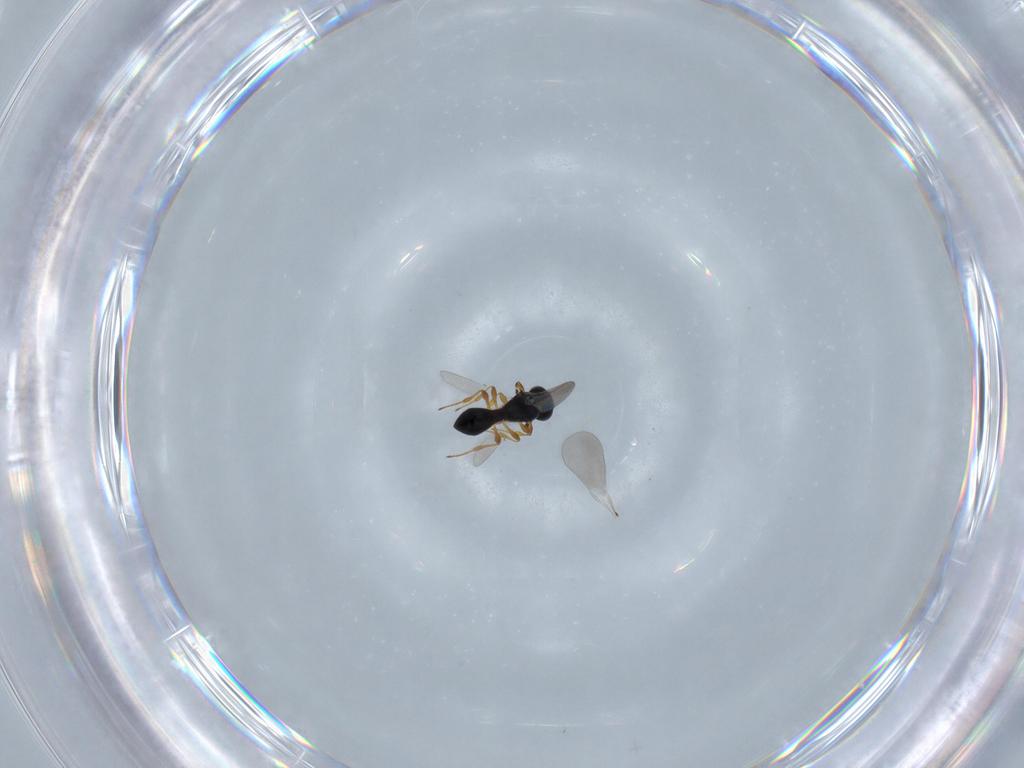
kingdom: Animalia
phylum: Arthropoda
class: Insecta
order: Hymenoptera
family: Platygastridae
